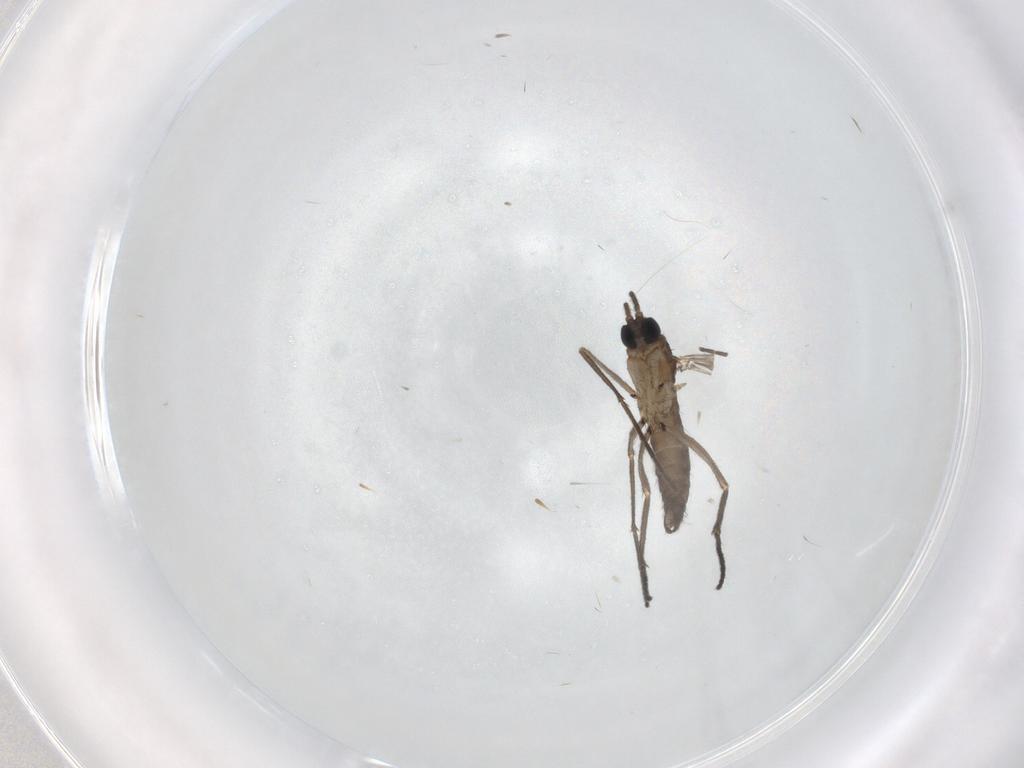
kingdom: Animalia
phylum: Arthropoda
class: Insecta
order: Diptera
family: Sciaridae
